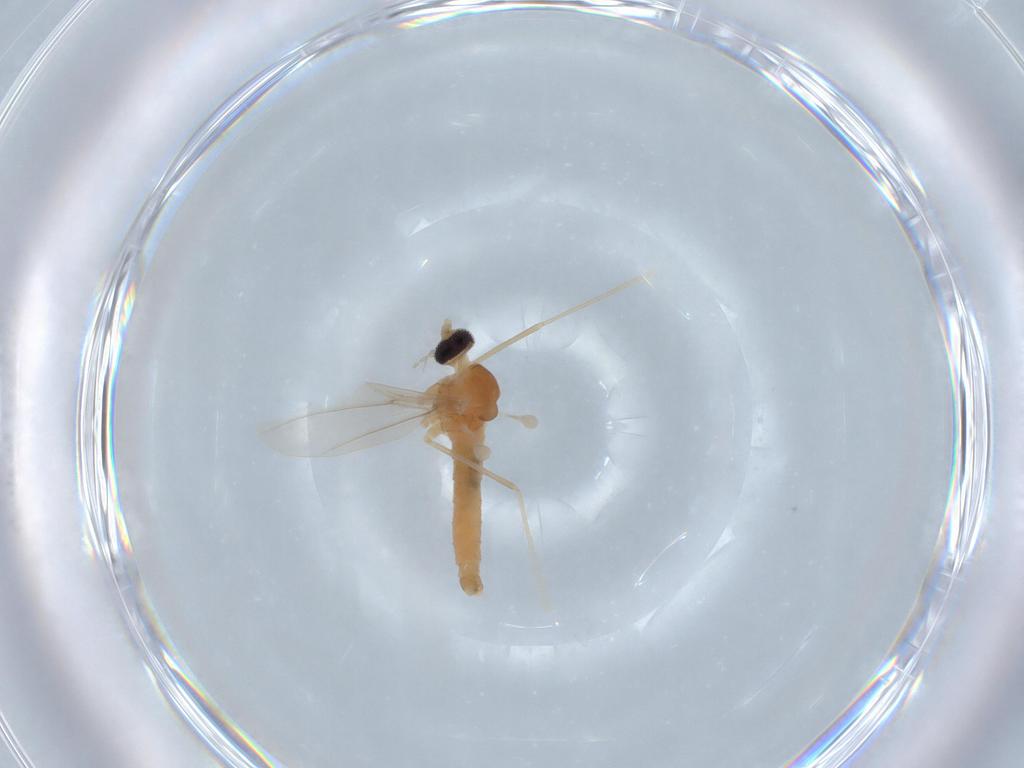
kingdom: Animalia
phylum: Arthropoda
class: Insecta
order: Diptera
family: Cecidomyiidae
